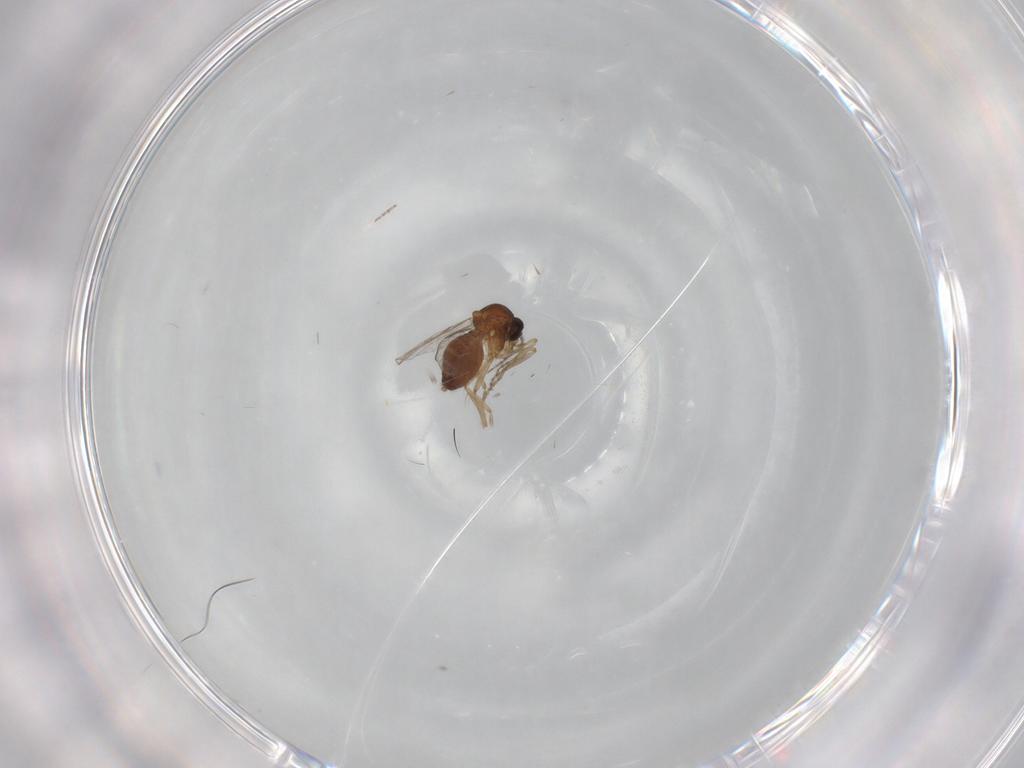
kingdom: Animalia
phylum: Arthropoda
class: Insecta
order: Diptera
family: Ceratopogonidae
